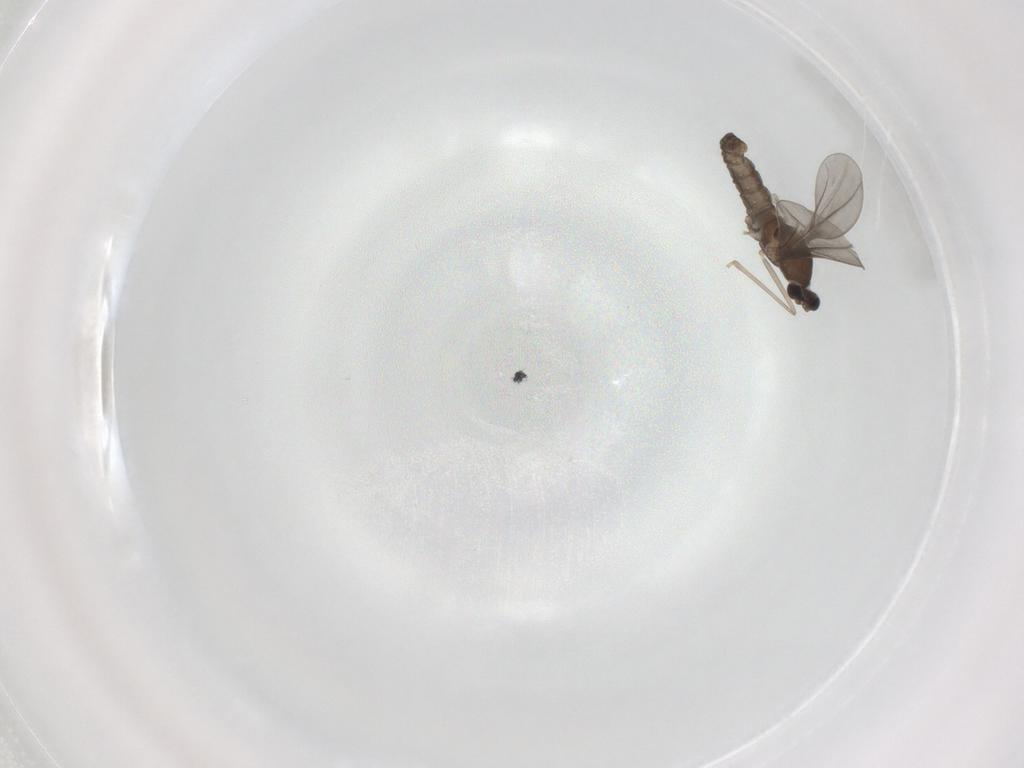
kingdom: Animalia
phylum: Arthropoda
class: Insecta
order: Diptera
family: Cecidomyiidae
